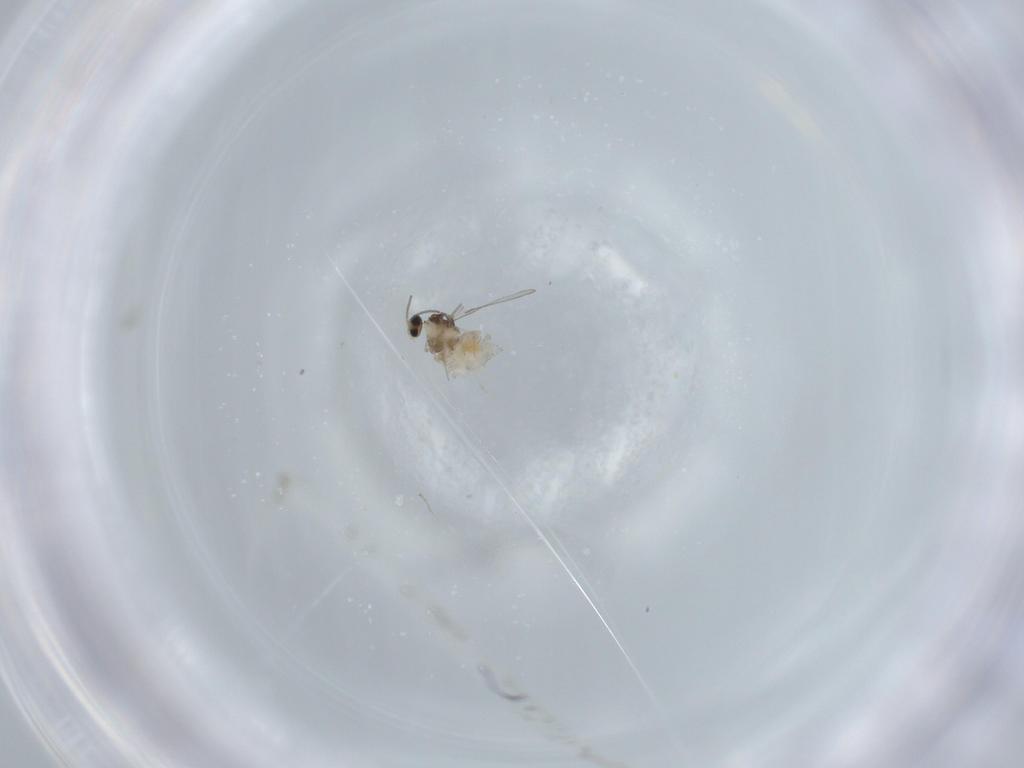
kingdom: Animalia
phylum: Arthropoda
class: Insecta
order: Diptera
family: Cecidomyiidae
